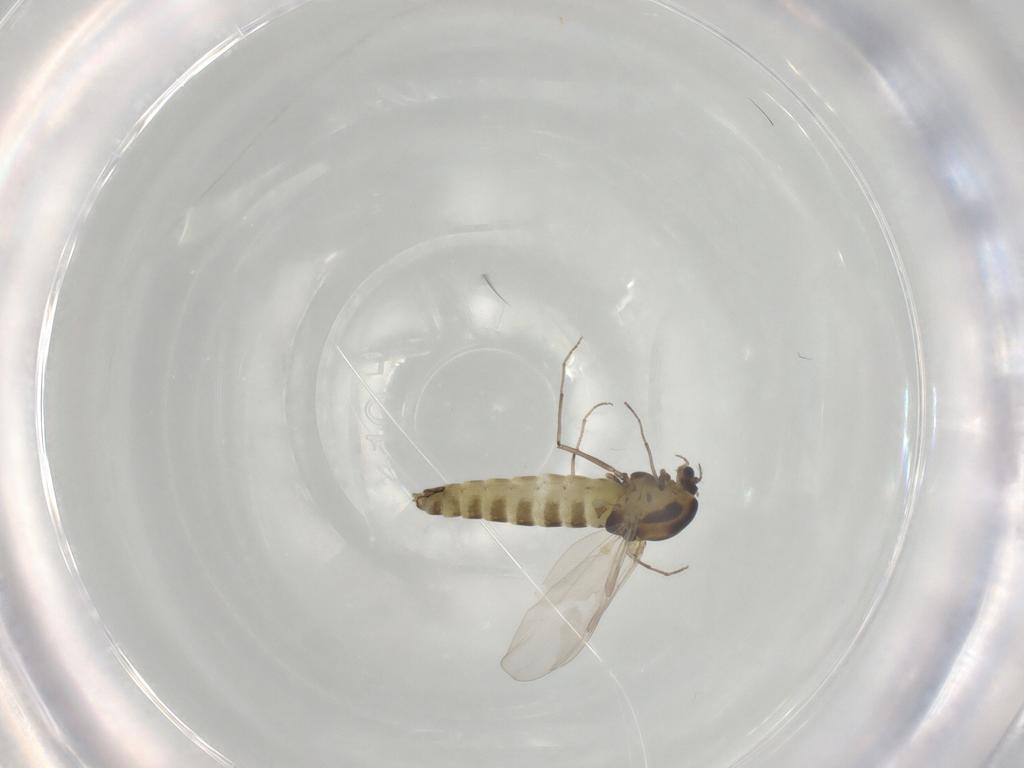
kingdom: Animalia
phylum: Arthropoda
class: Insecta
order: Diptera
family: Chironomidae
